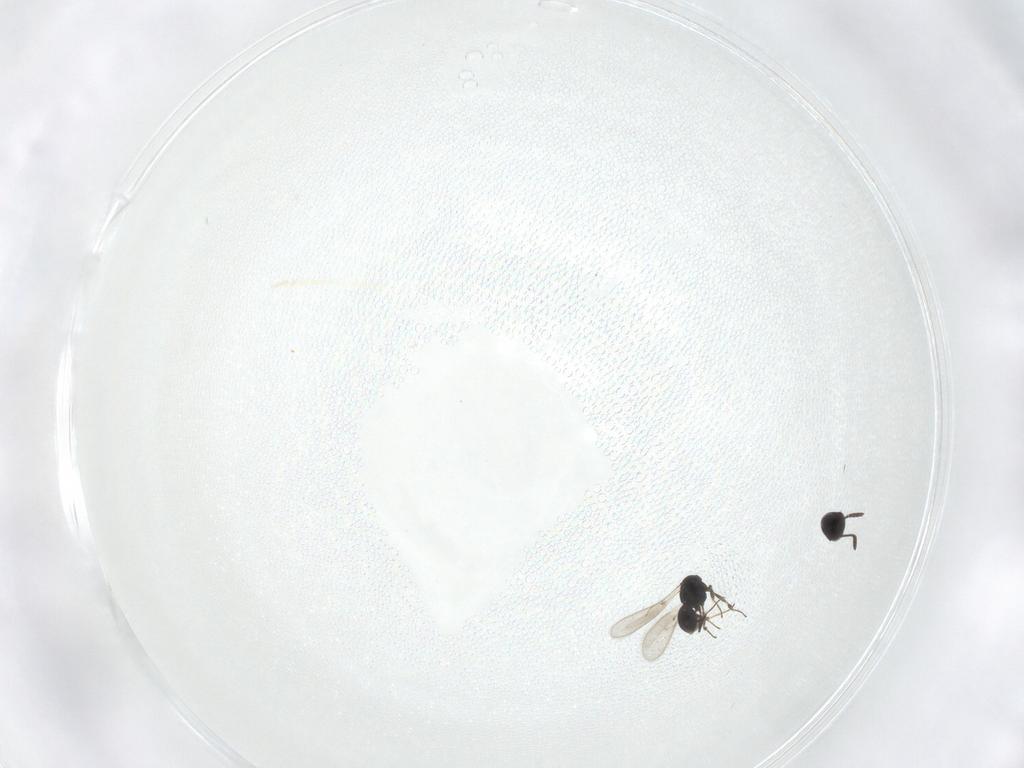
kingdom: Animalia
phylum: Arthropoda
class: Insecta
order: Hymenoptera
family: Scelionidae
